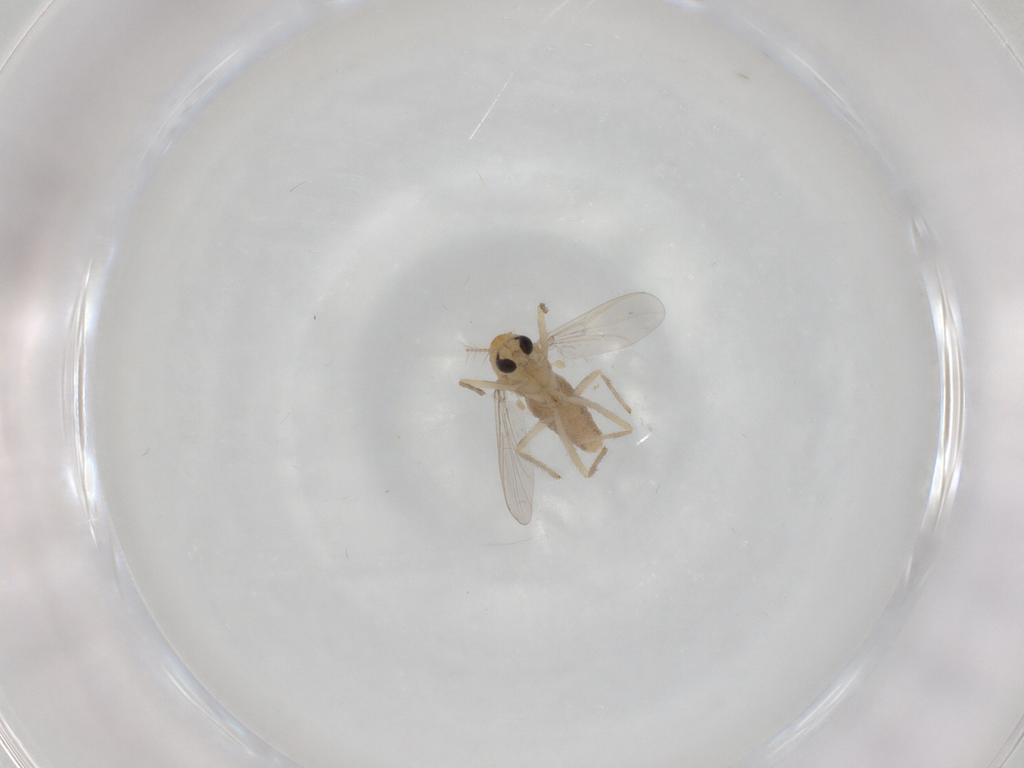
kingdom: Animalia
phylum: Arthropoda
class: Insecta
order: Diptera
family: Chironomidae
